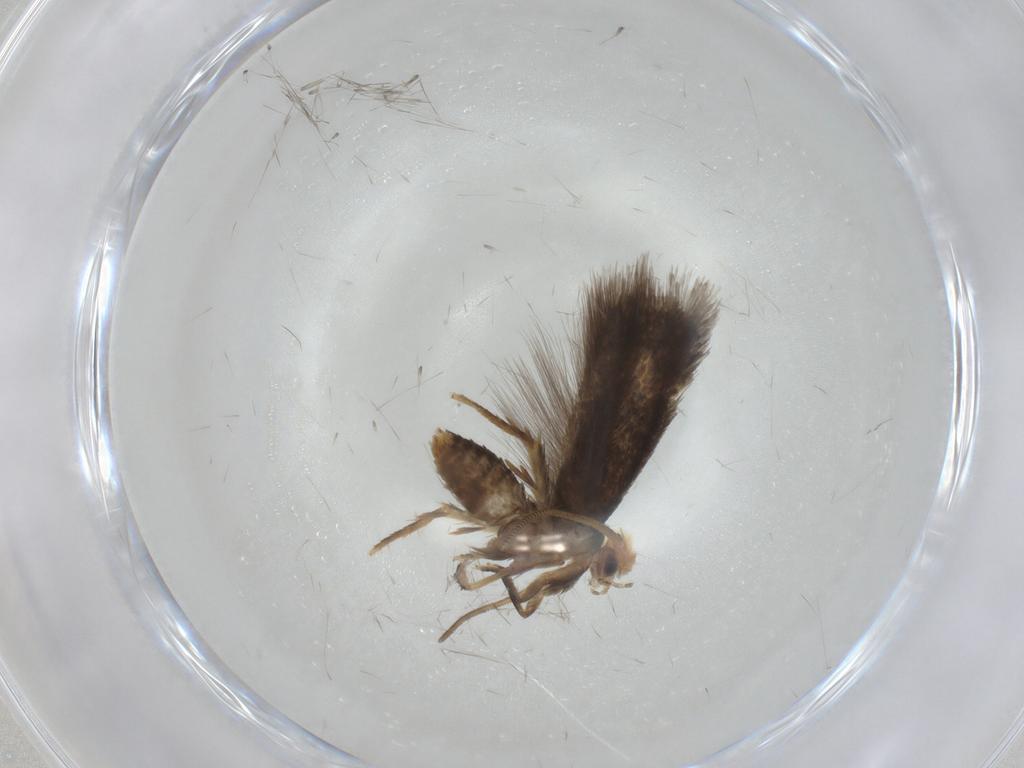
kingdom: Animalia
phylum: Arthropoda
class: Insecta
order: Lepidoptera
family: Nepticulidae
